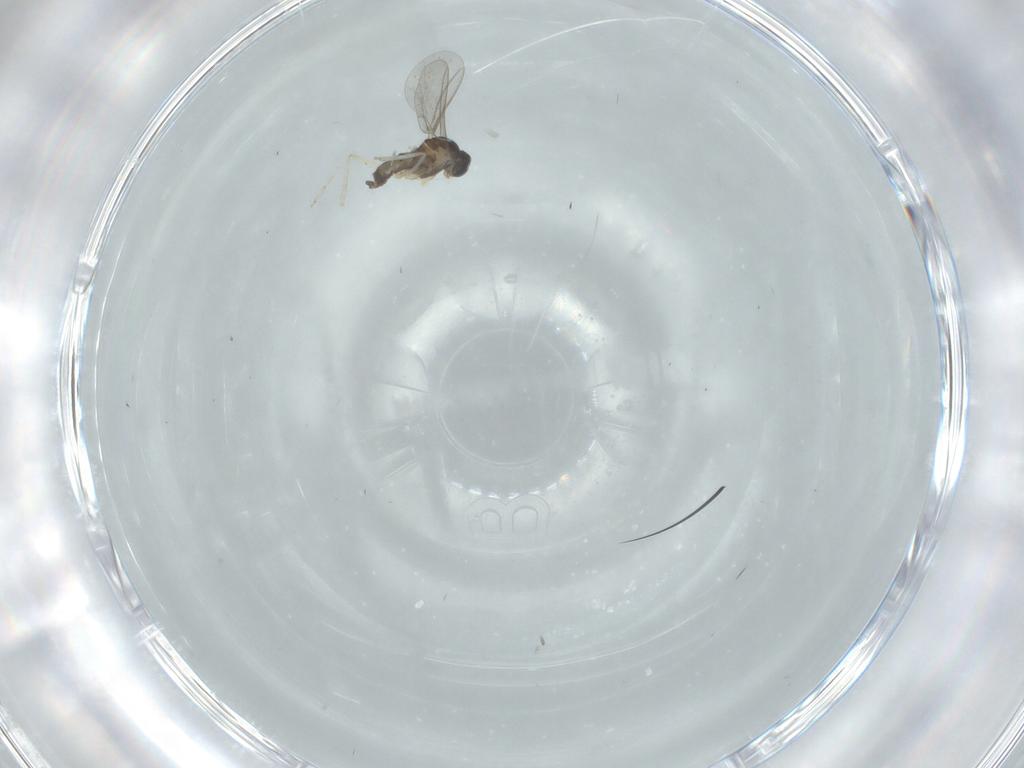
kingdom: Animalia
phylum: Arthropoda
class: Insecta
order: Diptera
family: Cecidomyiidae
